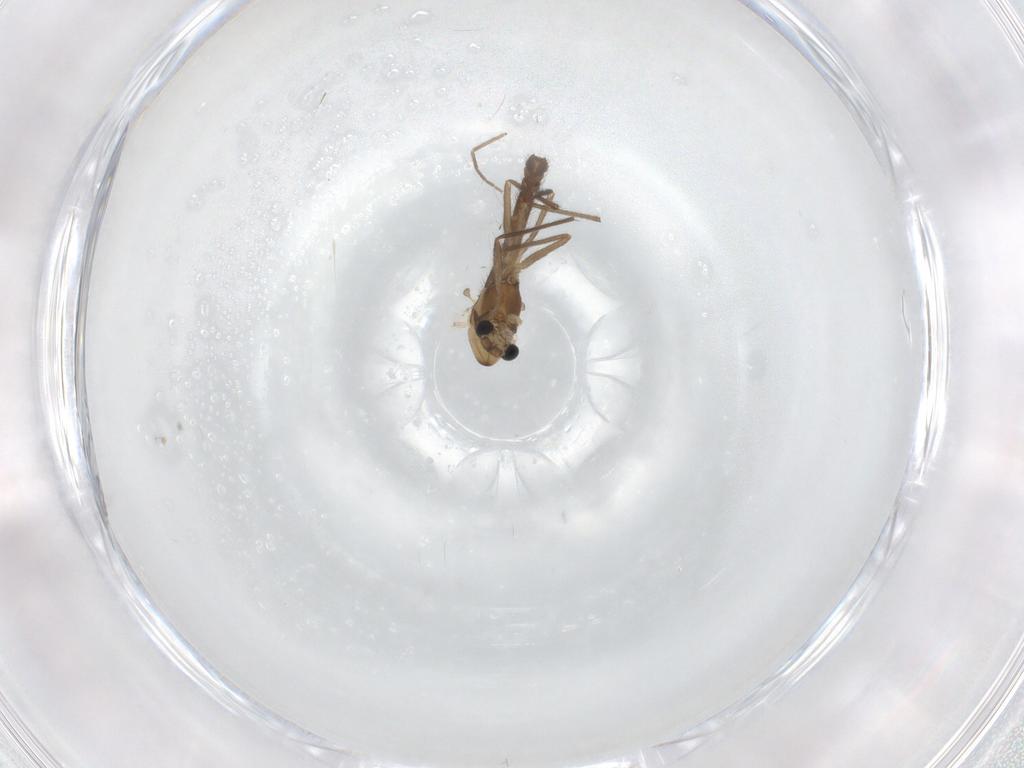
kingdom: Animalia
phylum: Arthropoda
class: Insecta
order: Diptera
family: Chironomidae
